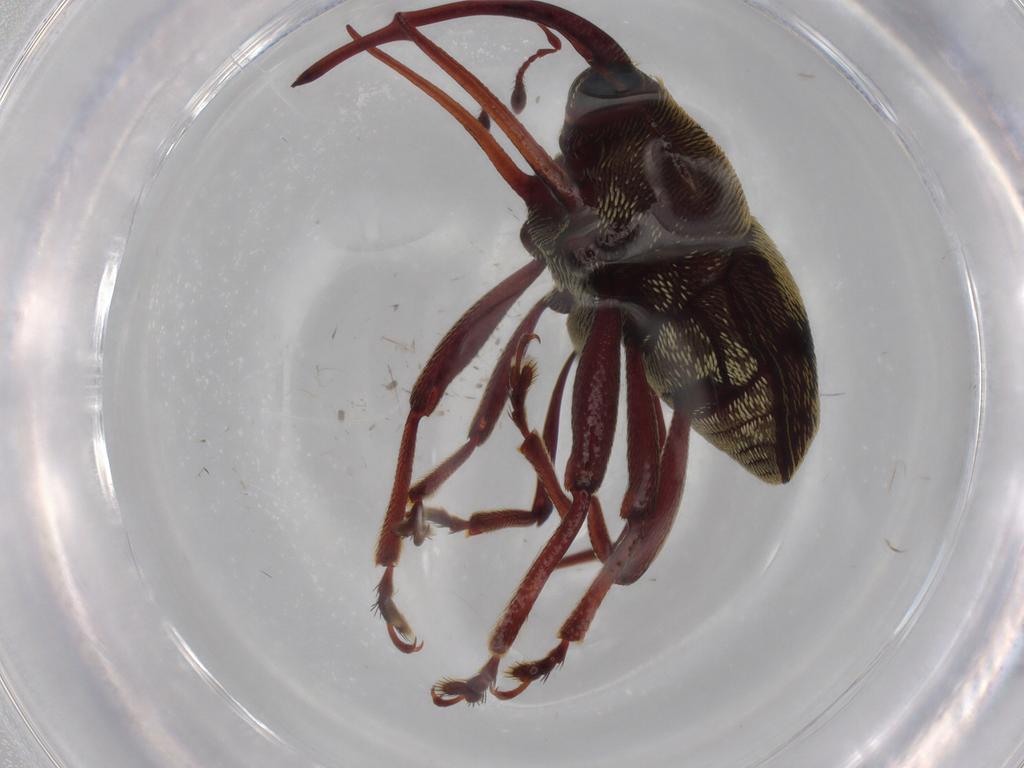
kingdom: Animalia
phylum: Arthropoda
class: Insecta
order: Coleoptera
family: Curculionidae
